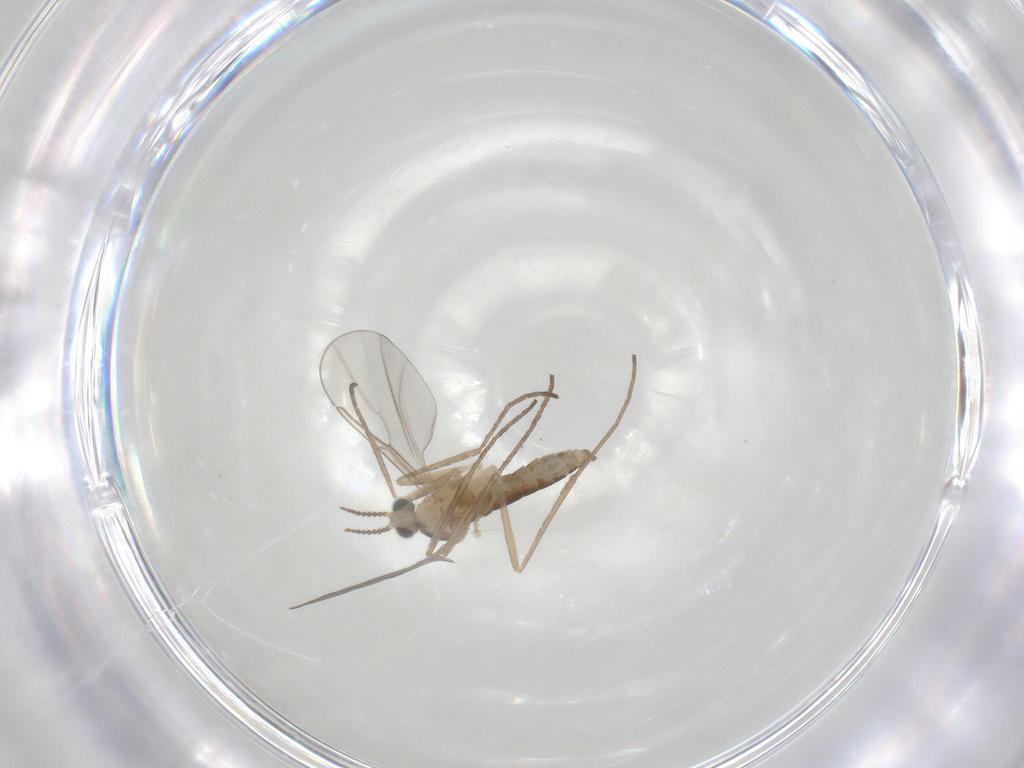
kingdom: Animalia
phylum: Arthropoda
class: Insecta
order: Diptera
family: Cecidomyiidae
